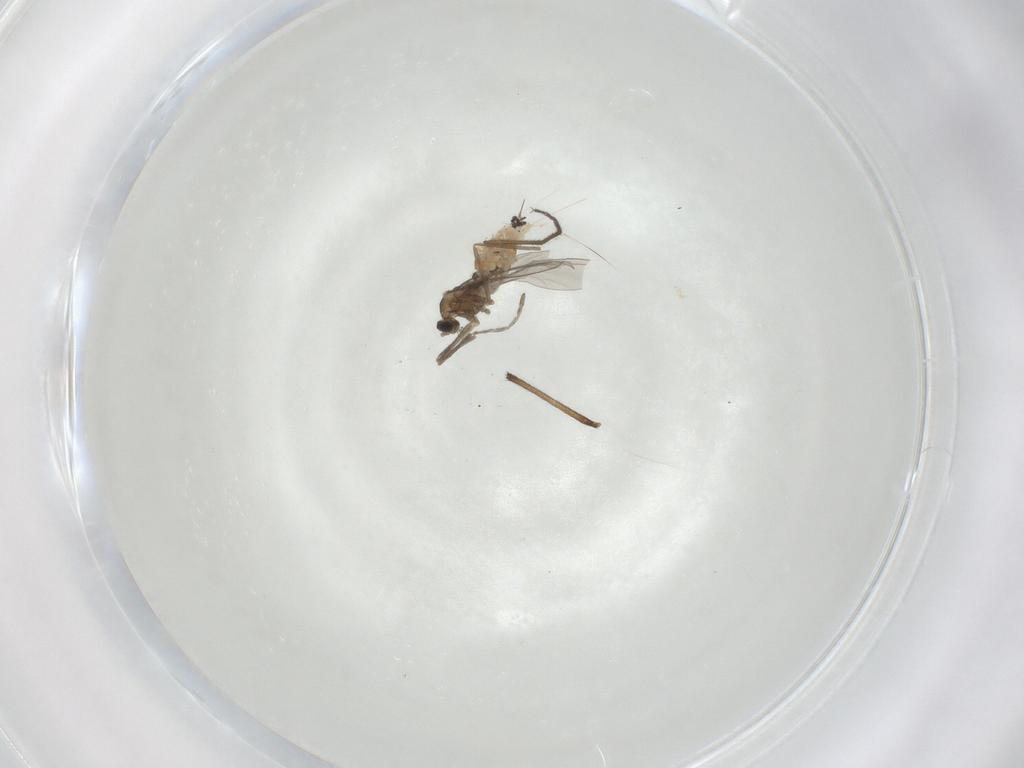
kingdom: Animalia
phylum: Arthropoda
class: Insecta
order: Diptera
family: Chironomidae
